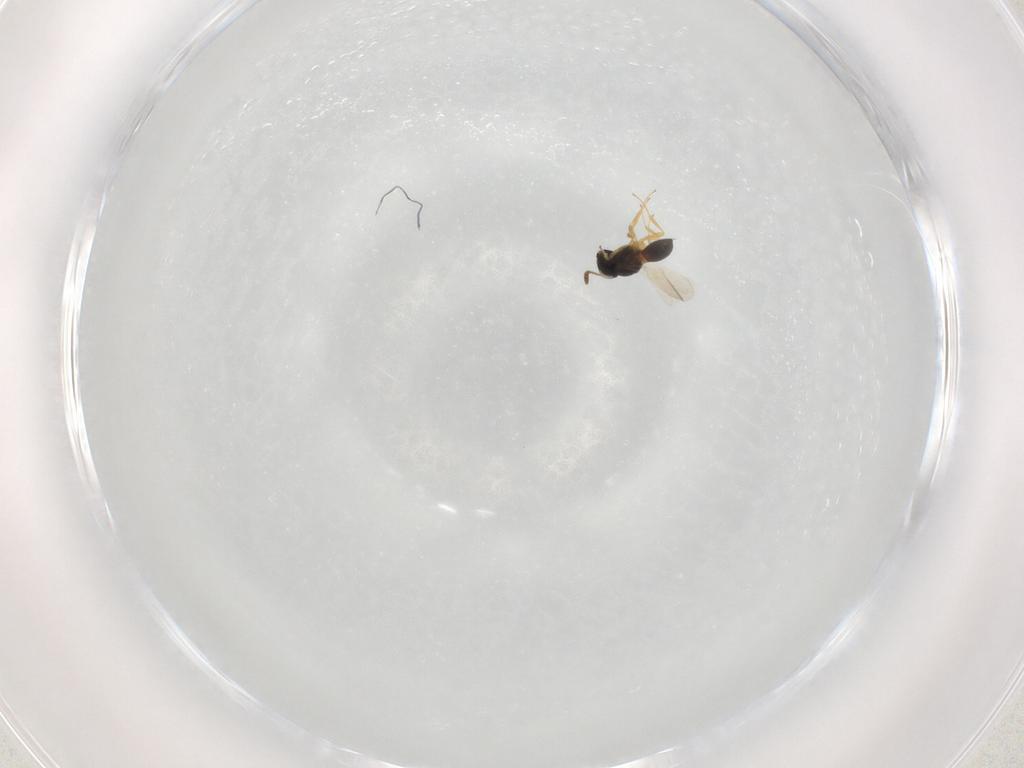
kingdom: Animalia
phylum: Arthropoda
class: Insecta
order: Hymenoptera
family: Scelionidae
